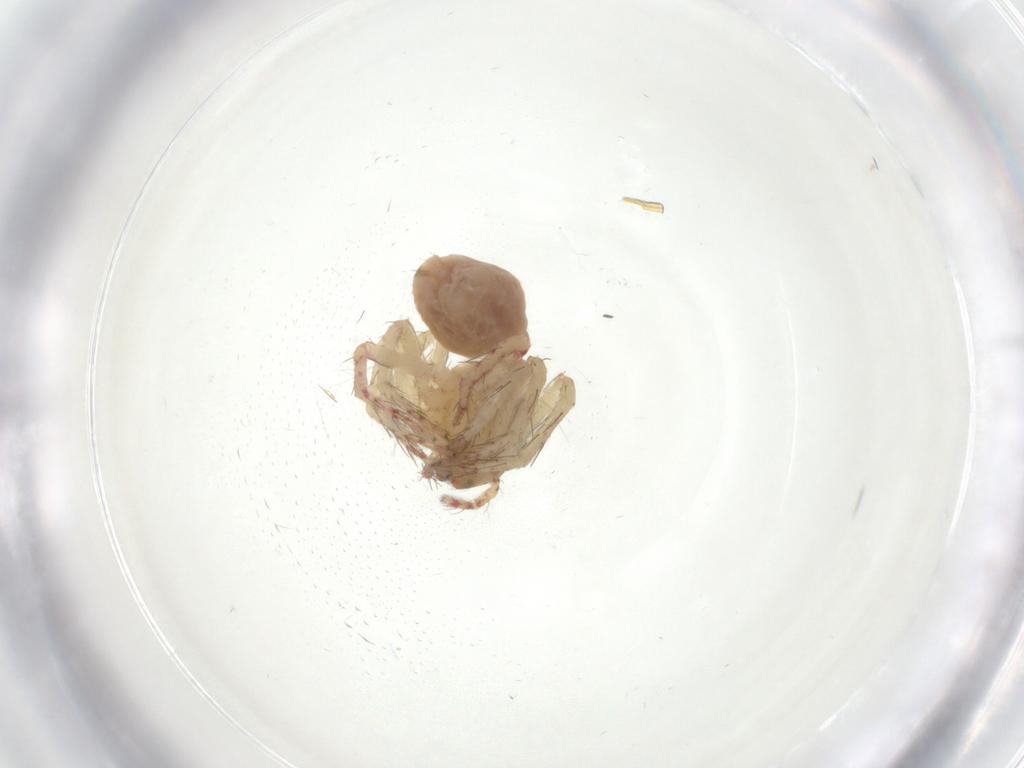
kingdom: Animalia
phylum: Arthropoda
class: Arachnida
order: Araneae
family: Oxyopidae
